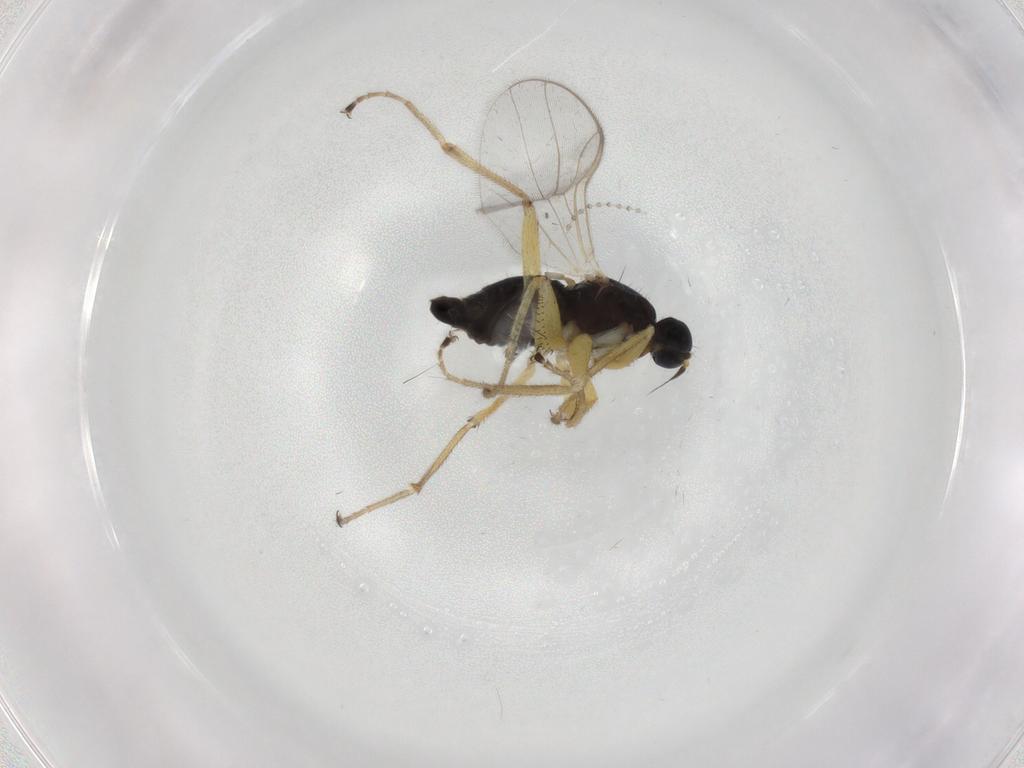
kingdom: Animalia
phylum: Arthropoda
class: Insecta
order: Diptera
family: Hybotidae
